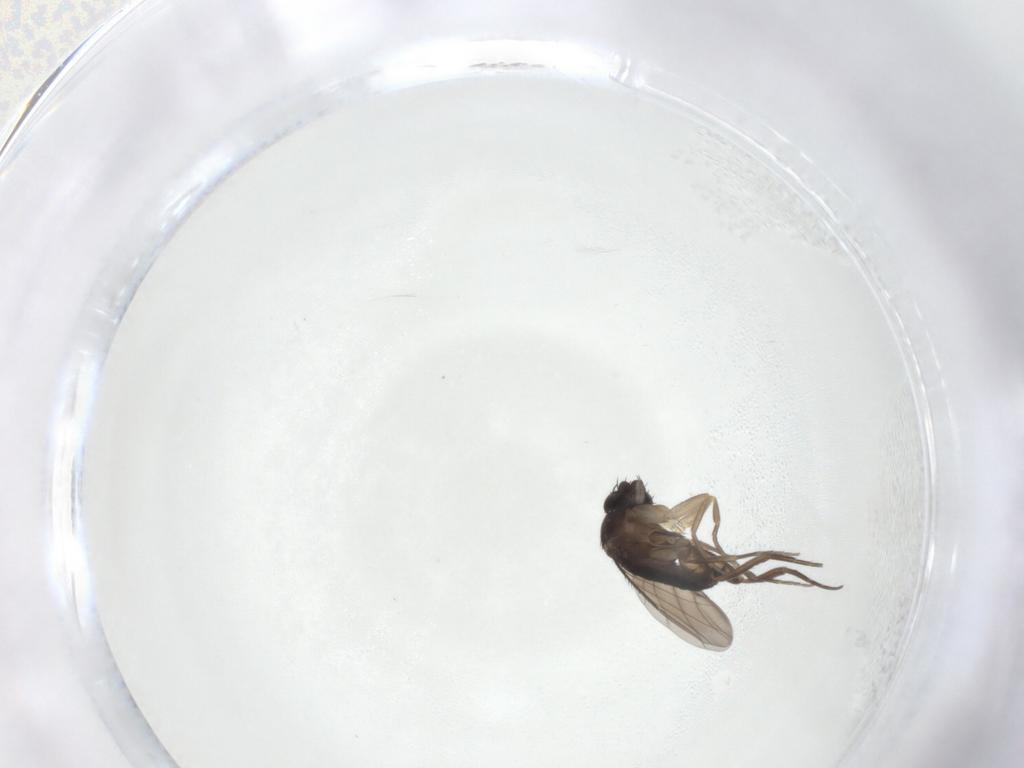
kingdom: Animalia
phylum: Arthropoda
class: Insecta
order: Diptera
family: Phoridae
